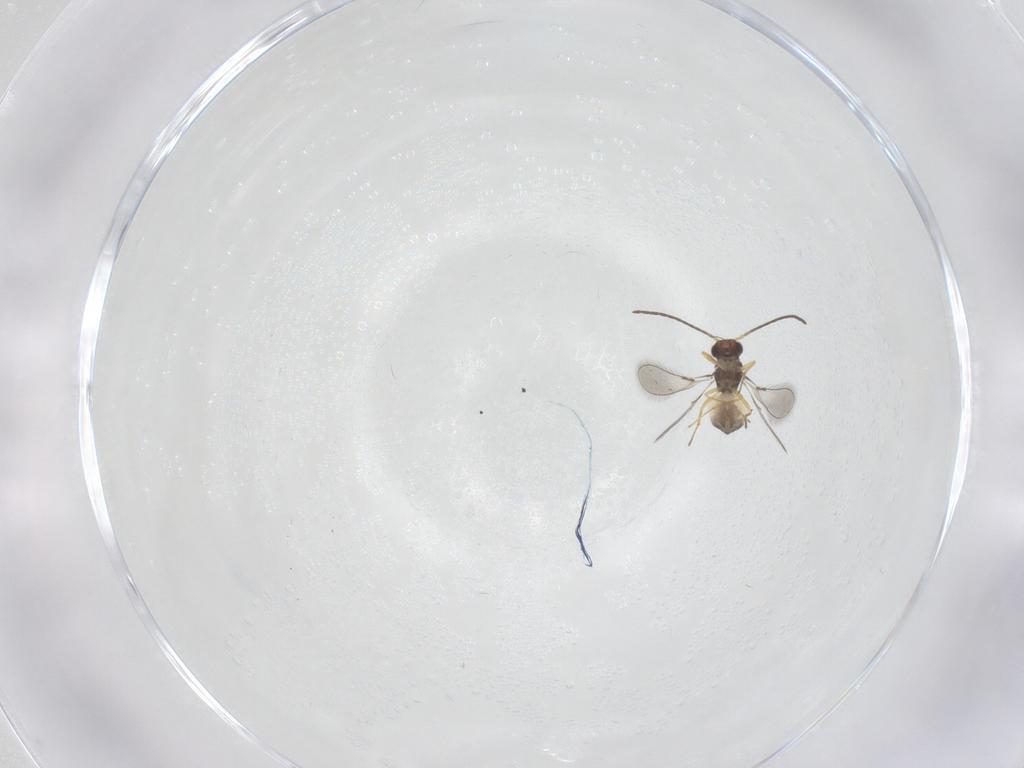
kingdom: Animalia
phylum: Arthropoda
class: Insecta
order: Hymenoptera
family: Mymaridae
